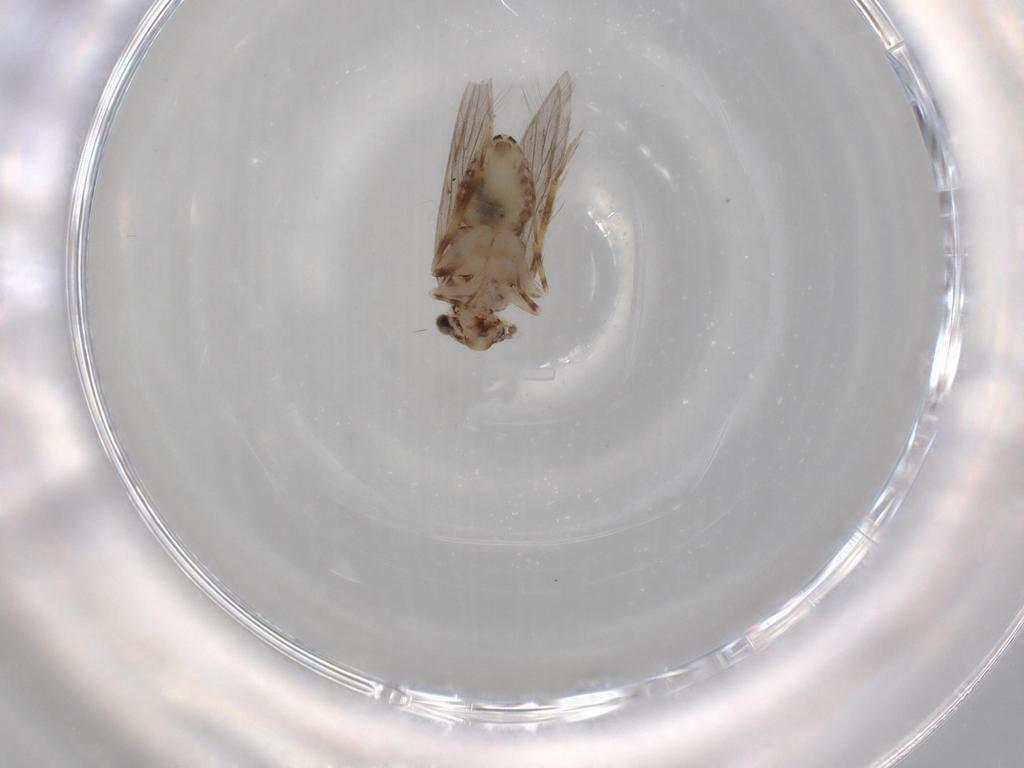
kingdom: Animalia
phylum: Arthropoda
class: Insecta
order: Psocodea
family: Lepidopsocidae
